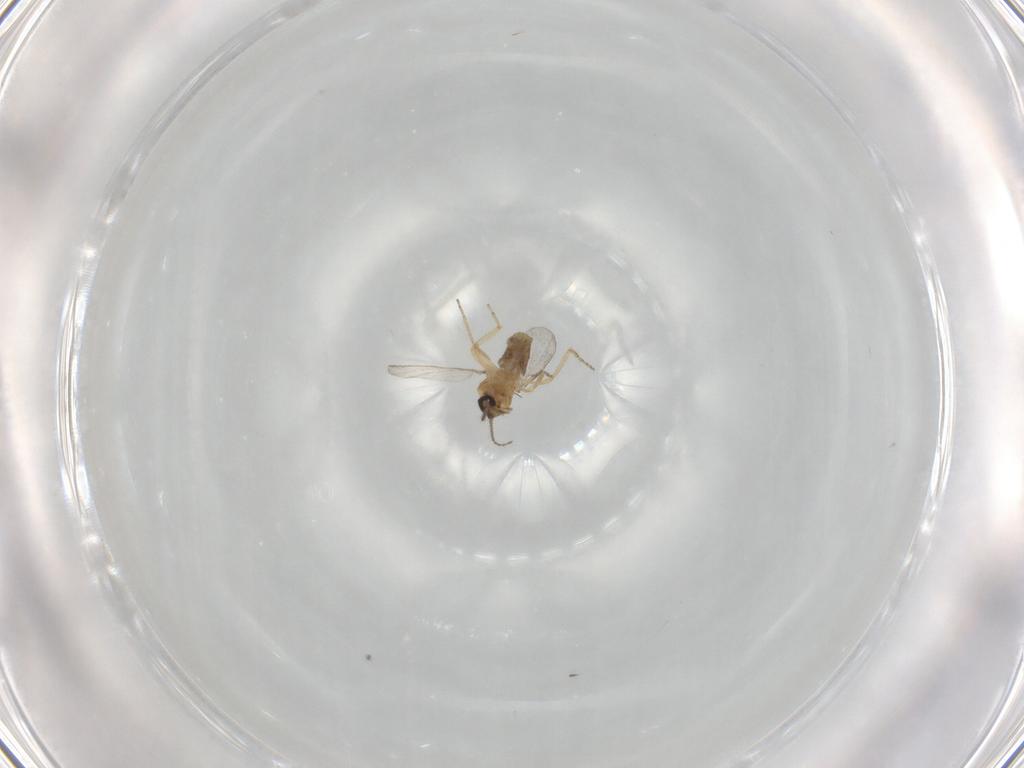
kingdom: Animalia
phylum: Arthropoda
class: Insecta
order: Diptera
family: Ceratopogonidae
